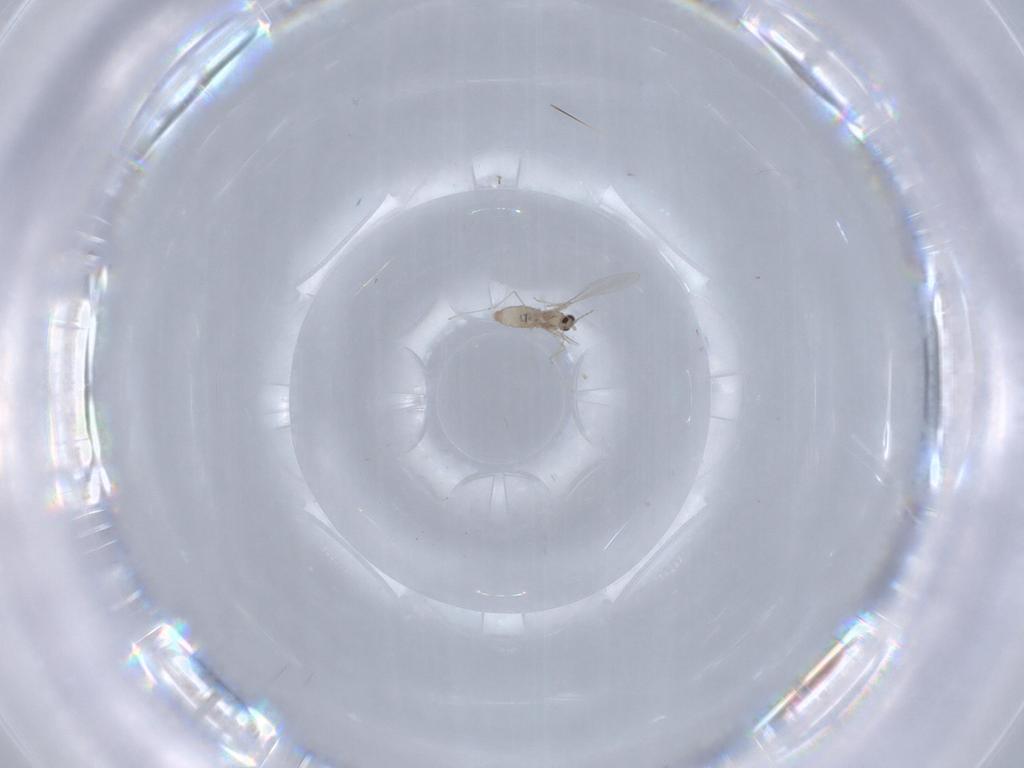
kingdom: Animalia
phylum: Arthropoda
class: Insecta
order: Diptera
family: Cecidomyiidae
